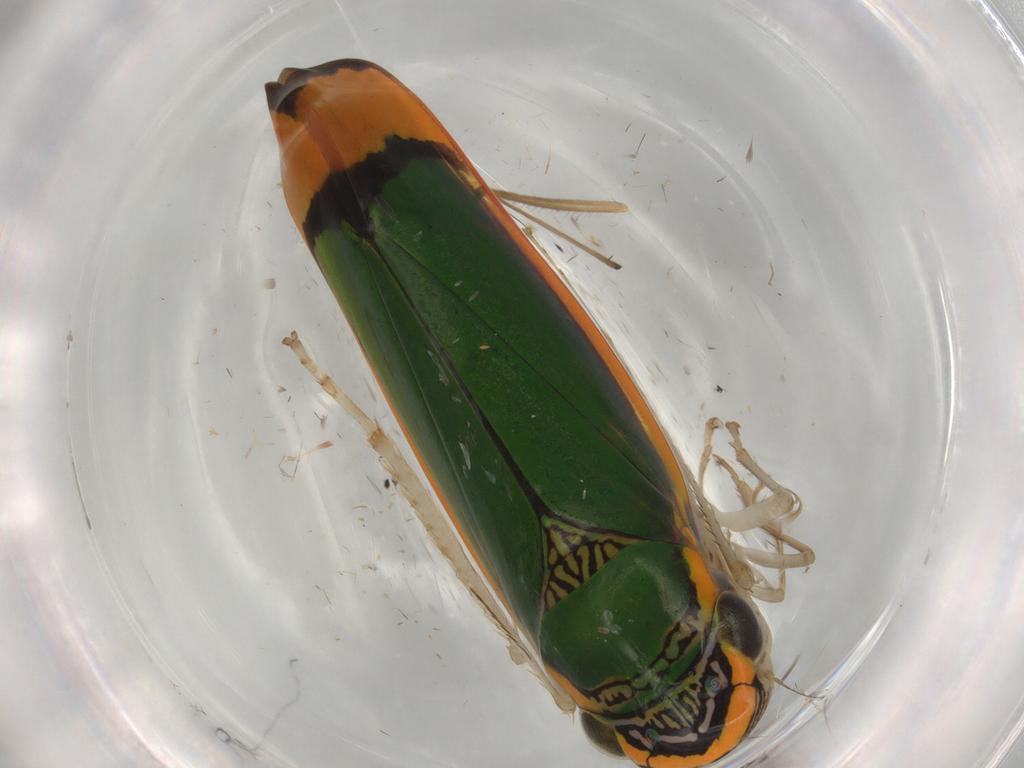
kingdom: Animalia
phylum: Arthropoda
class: Insecta
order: Hemiptera
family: Cicadellidae
